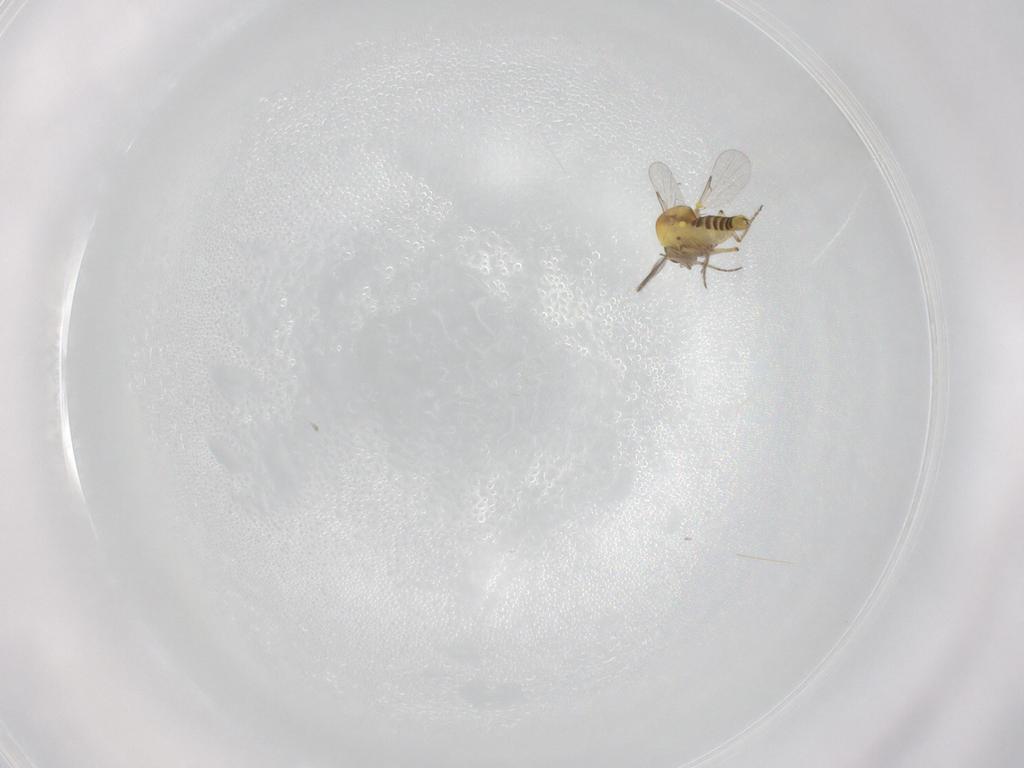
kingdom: Animalia
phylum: Arthropoda
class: Insecta
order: Diptera
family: Ceratopogonidae
